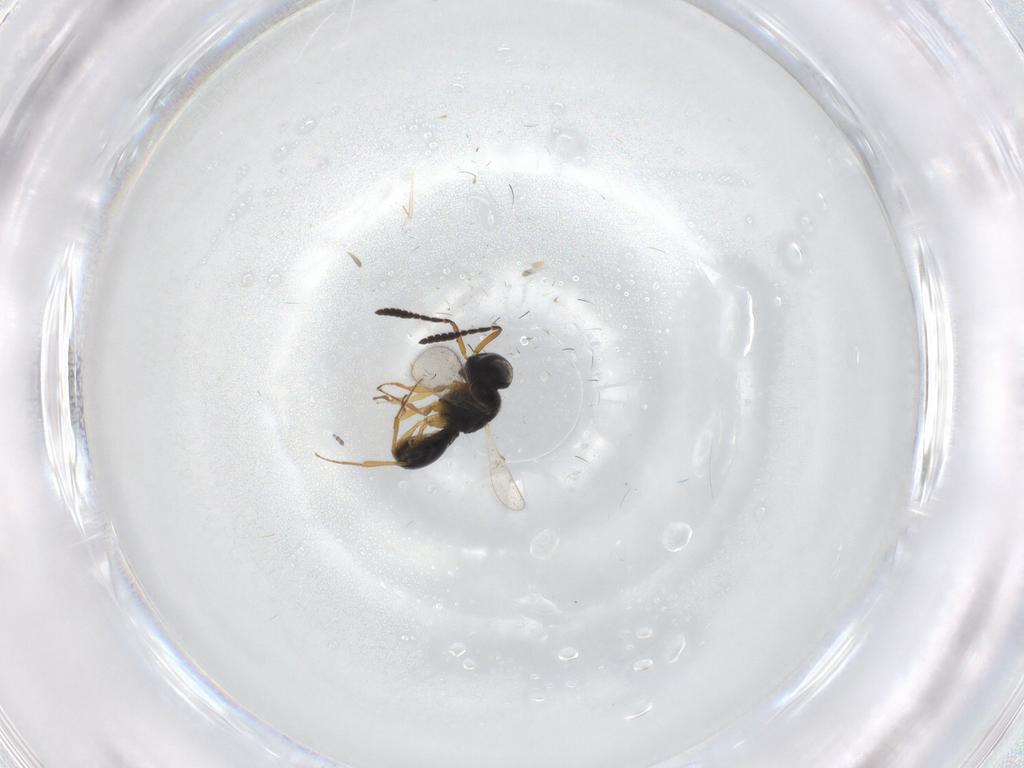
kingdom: Animalia
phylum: Arthropoda
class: Insecta
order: Hymenoptera
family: Scelionidae
